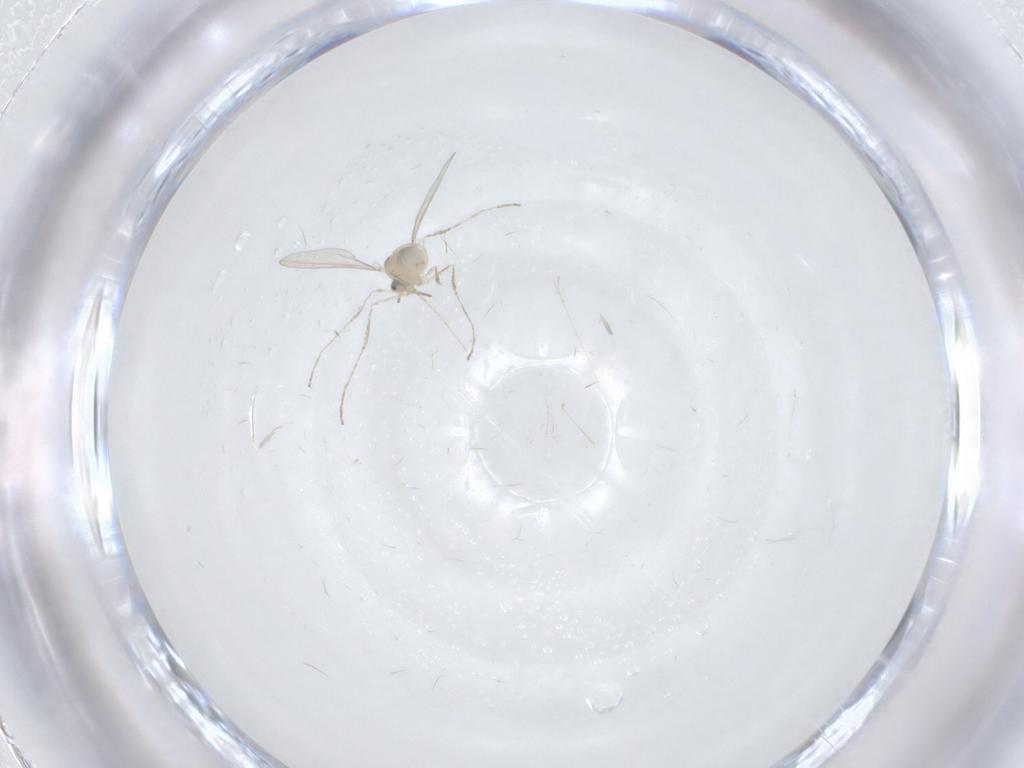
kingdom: Animalia
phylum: Arthropoda
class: Insecta
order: Diptera
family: Cecidomyiidae
